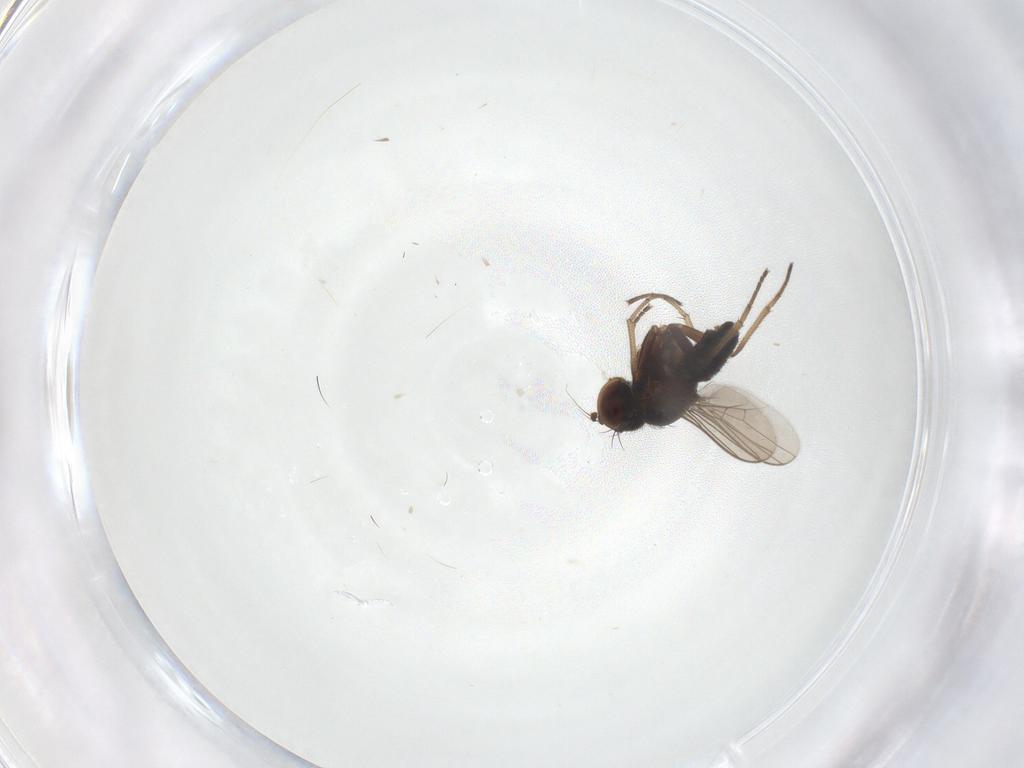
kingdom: Animalia
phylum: Arthropoda
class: Insecta
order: Diptera
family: Dolichopodidae
